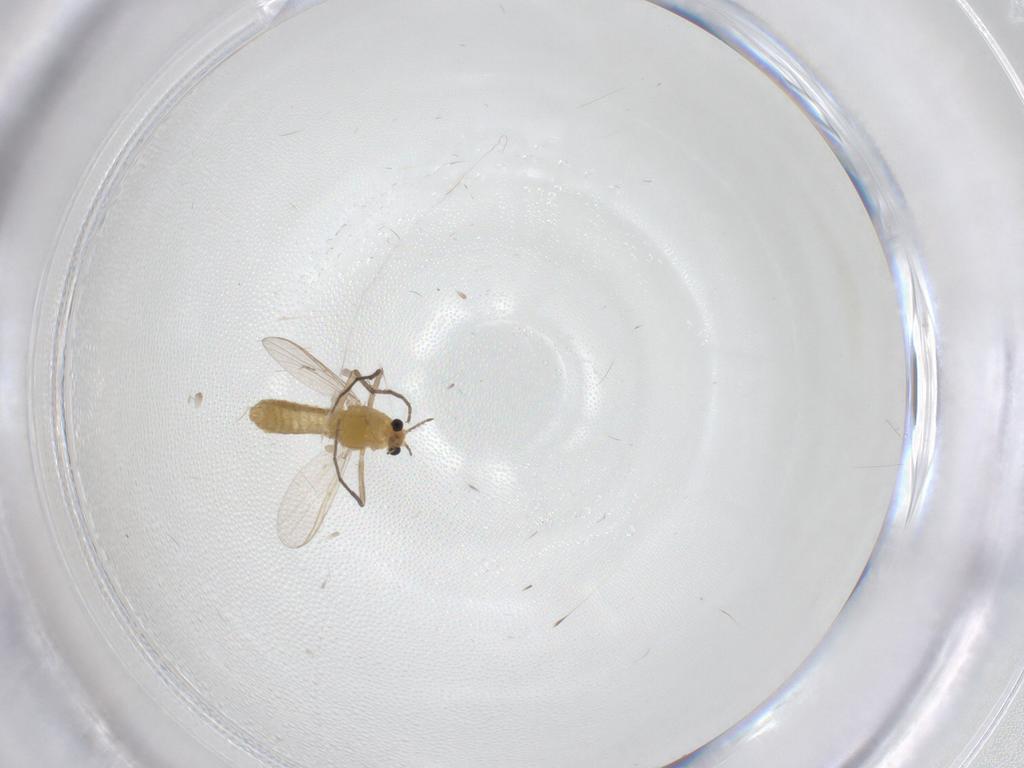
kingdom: Animalia
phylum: Arthropoda
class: Insecta
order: Diptera
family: Chironomidae
